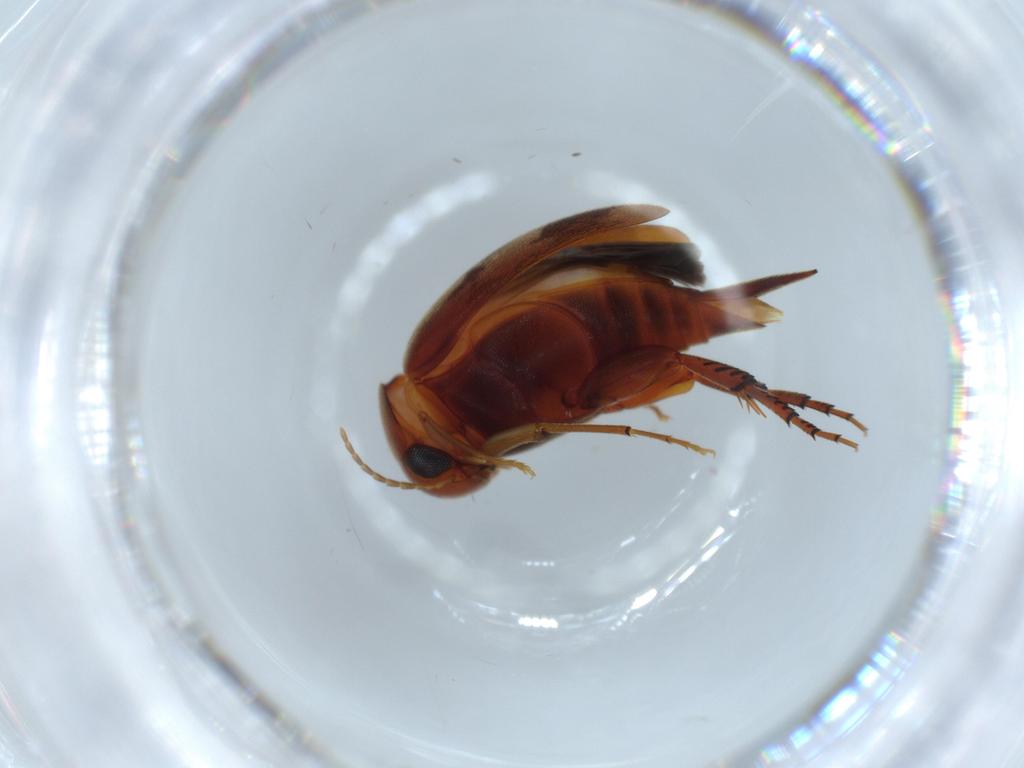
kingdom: Animalia
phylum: Arthropoda
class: Insecta
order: Coleoptera
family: Mordellidae
